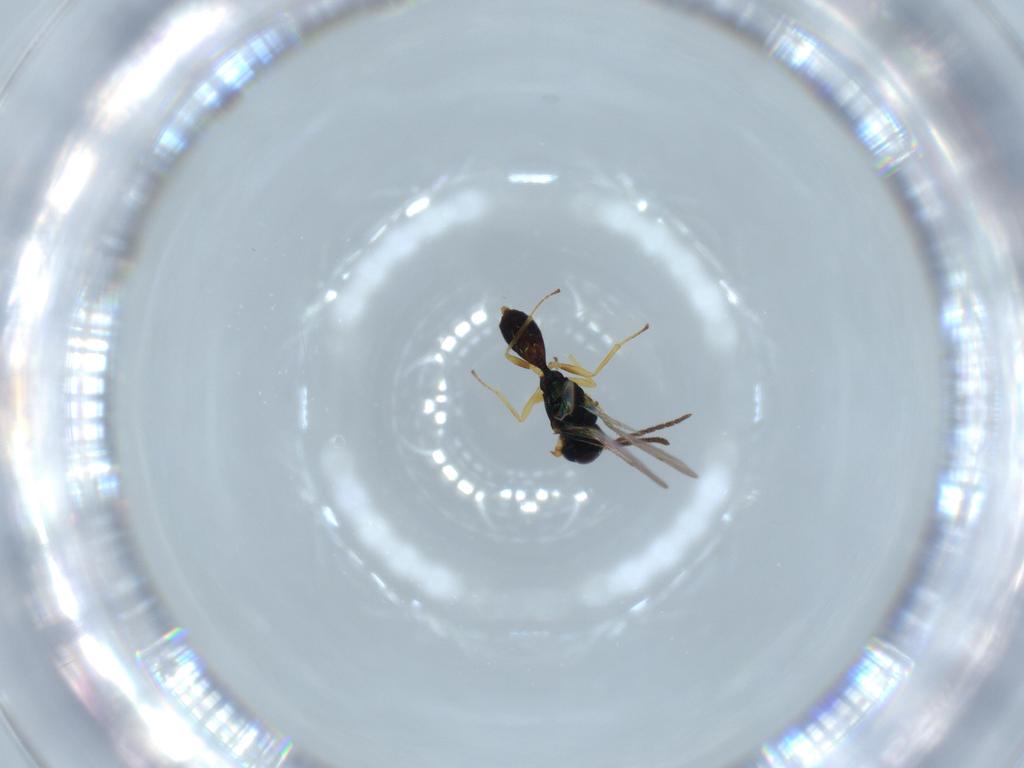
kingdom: Animalia
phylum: Arthropoda
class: Insecta
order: Hymenoptera
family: Pteromalidae
